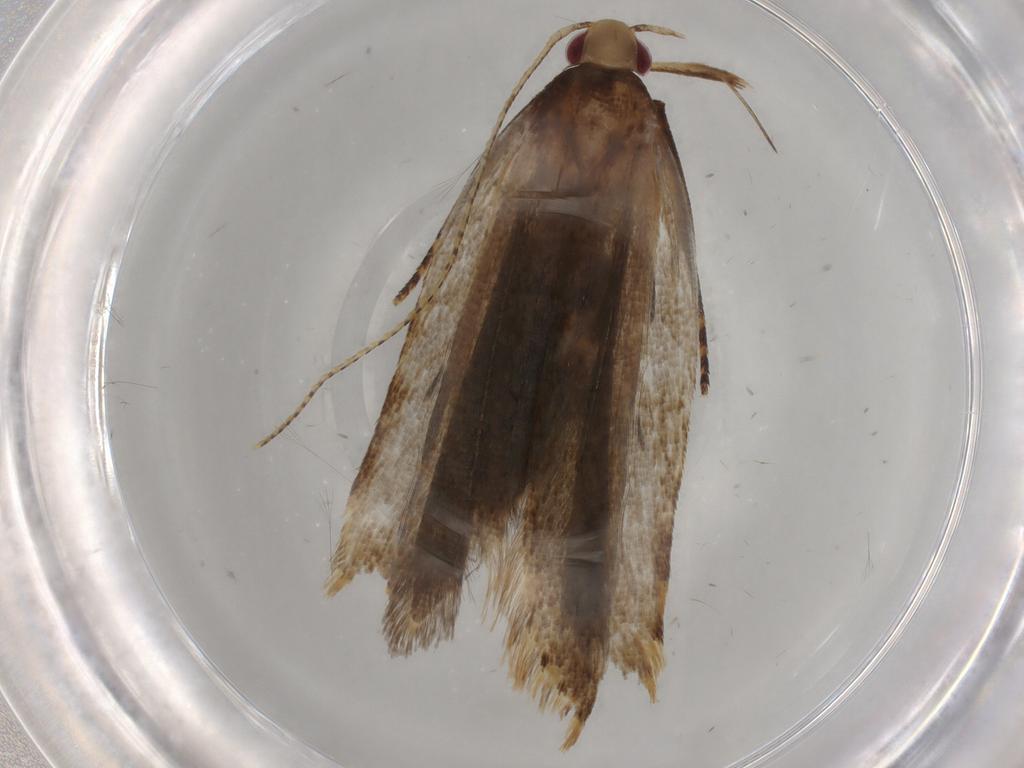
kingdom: Animalia
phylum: Arthropoda
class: Insecta
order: Lepidoptera
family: Gelechiidae
